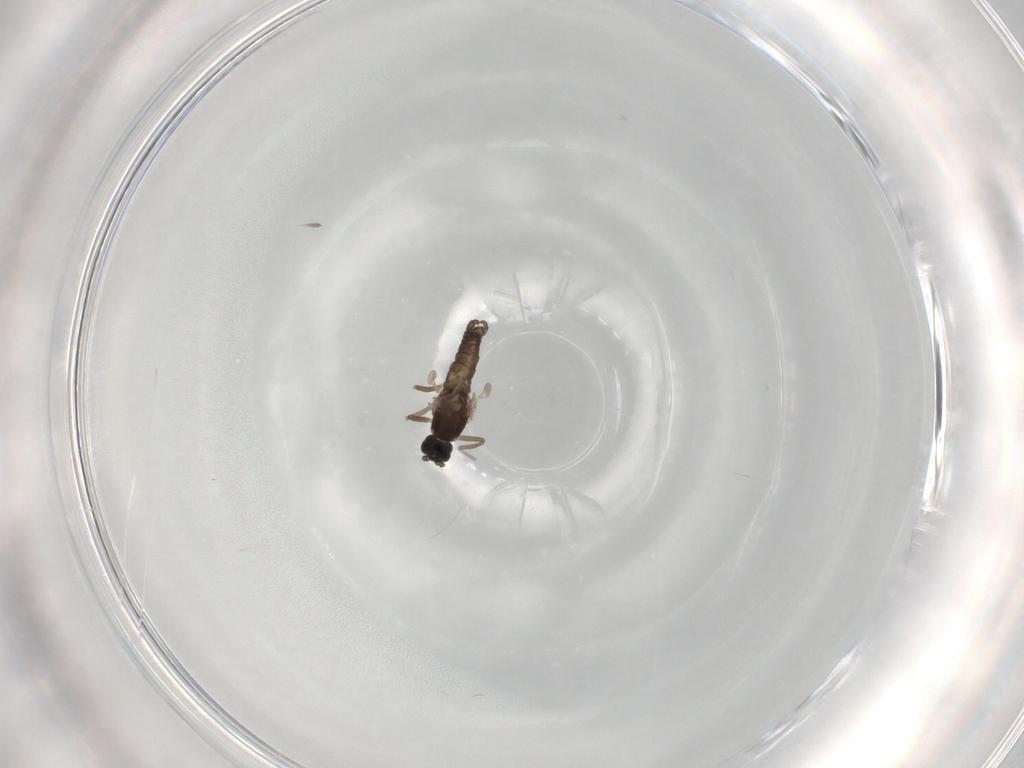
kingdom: Animalia
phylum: Arthropoda
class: Insecta
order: Diptera
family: Cecidomyiidae
